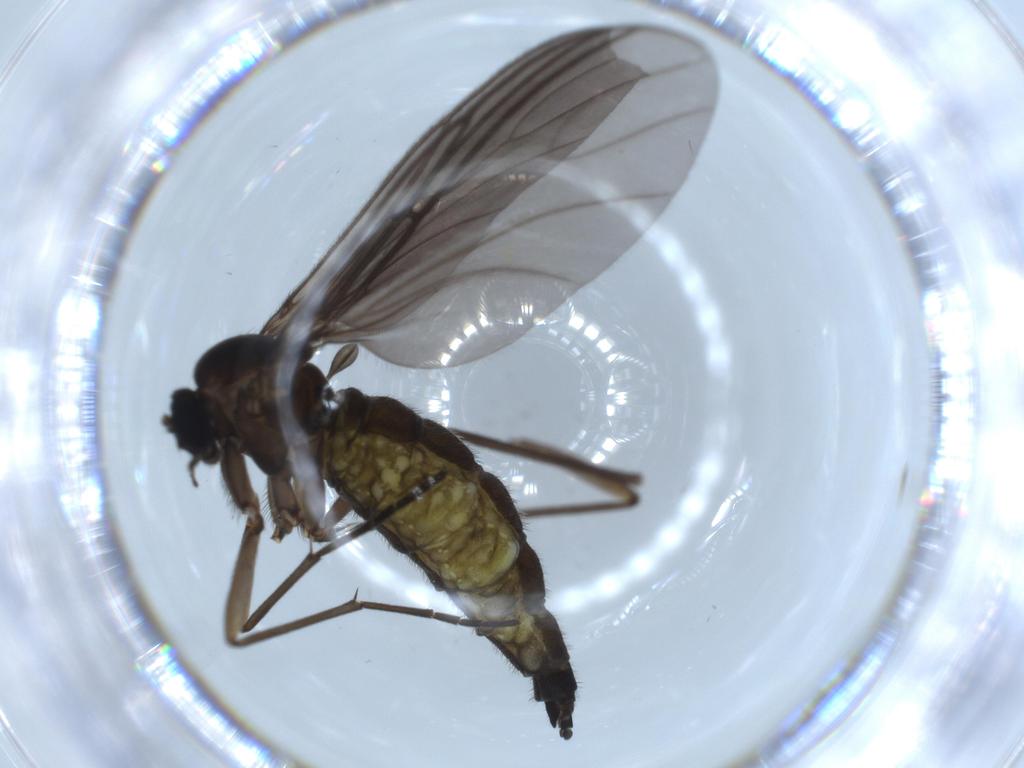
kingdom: Animalia
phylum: Arthropoda
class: Insecta
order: Diptera
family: Sciaridae
